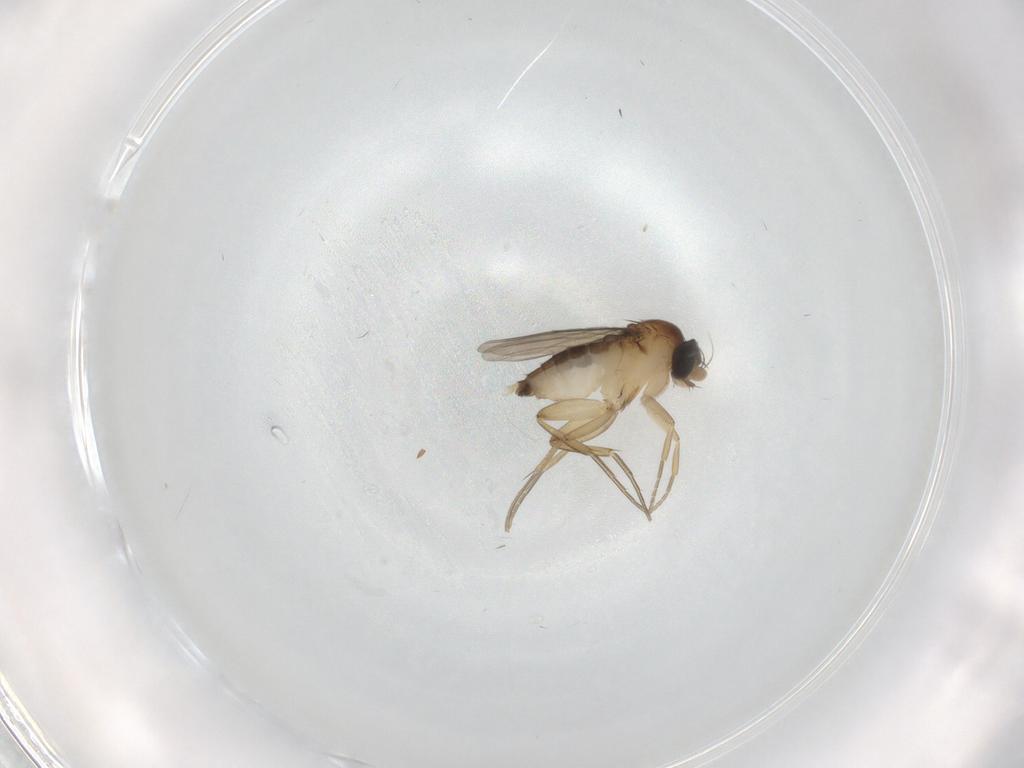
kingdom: Animalia
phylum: Arthropoda
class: Insecta
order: Diptera
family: Phoridae
